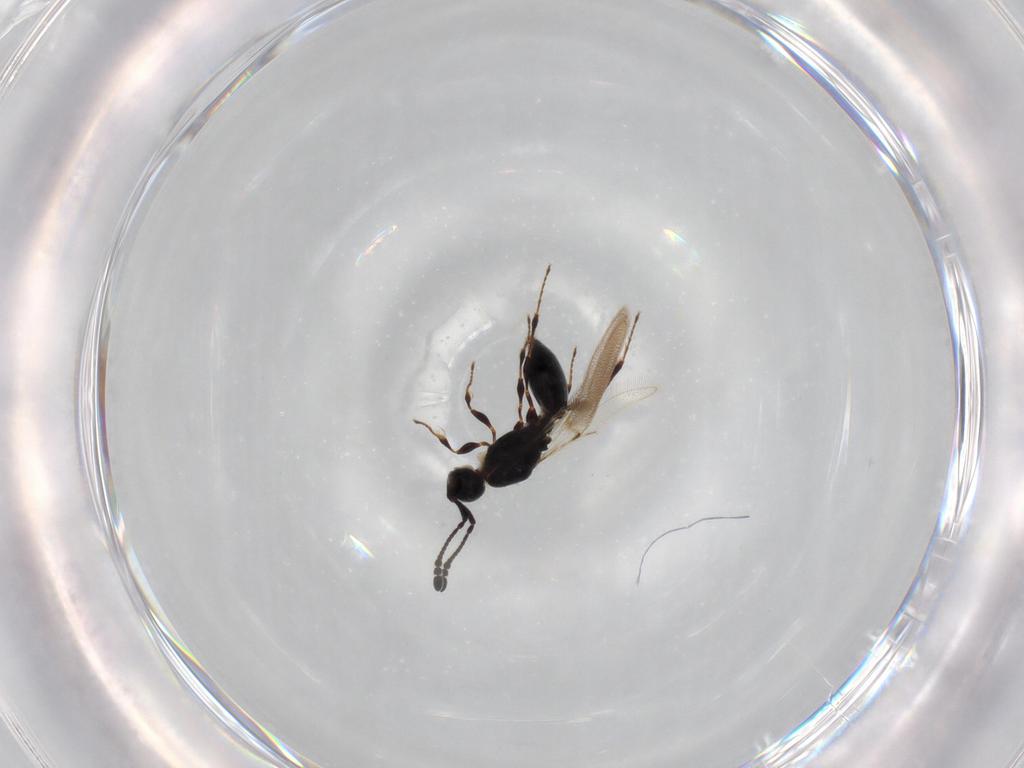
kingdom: Animalia
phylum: Arthropoda
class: Insecta
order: Hymenoptera
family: Diapriidae
